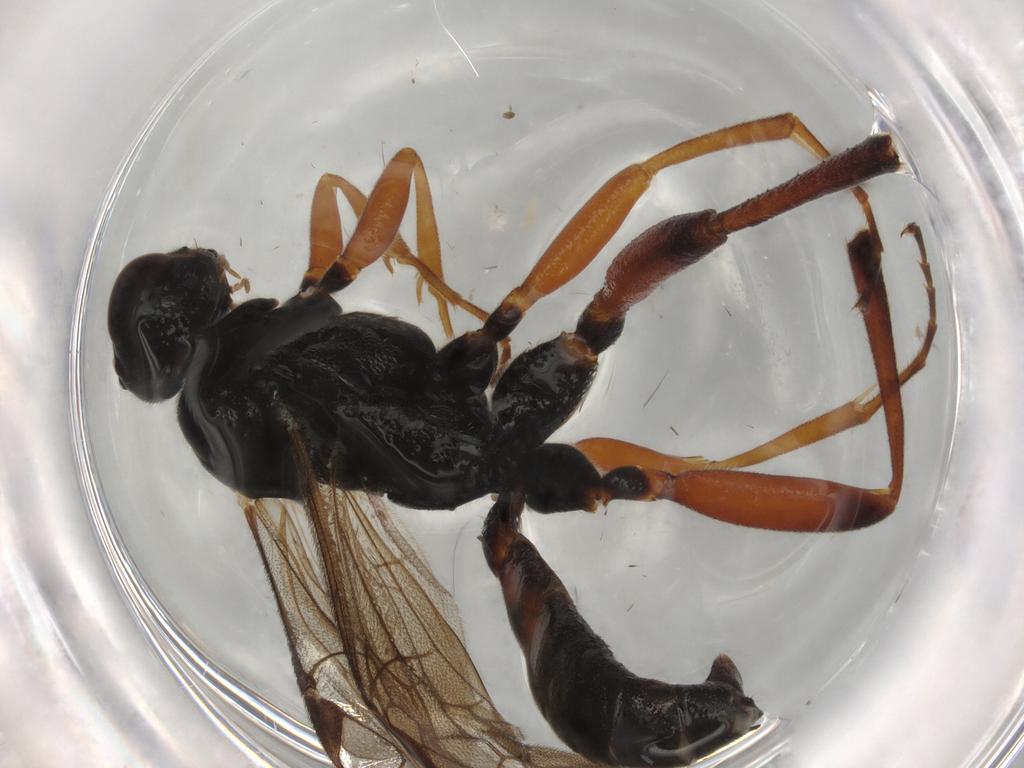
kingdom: Animalia
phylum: Arthropoda
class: Insecta
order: Hymenoptera
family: Ichneumonidae
